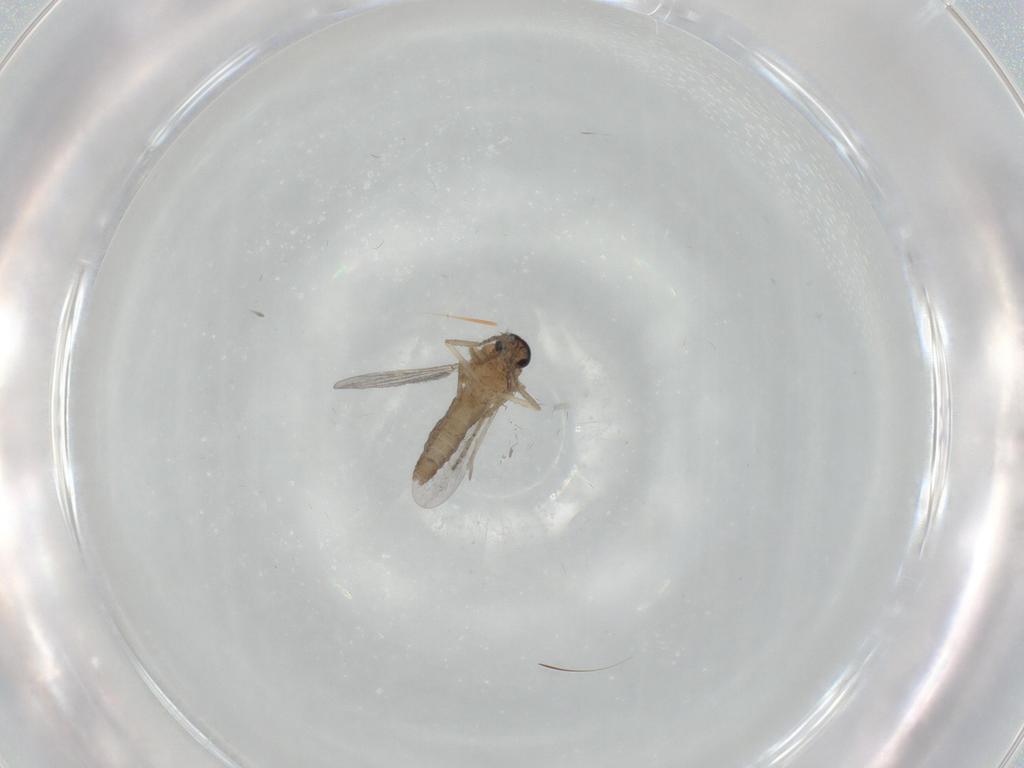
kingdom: Animalia
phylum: Arthropoda
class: Insecta
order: Diptera
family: Ceratopogonidae
